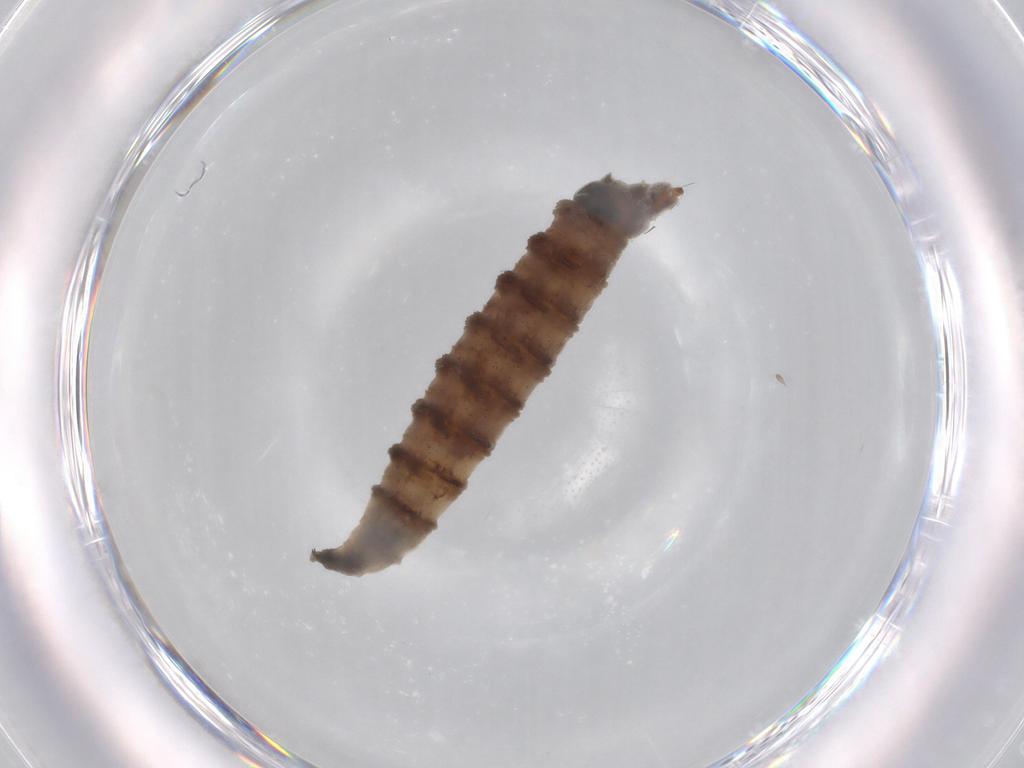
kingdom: Animalia
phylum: Arthropoda
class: Insecta
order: Diptera
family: Drosophilidae
